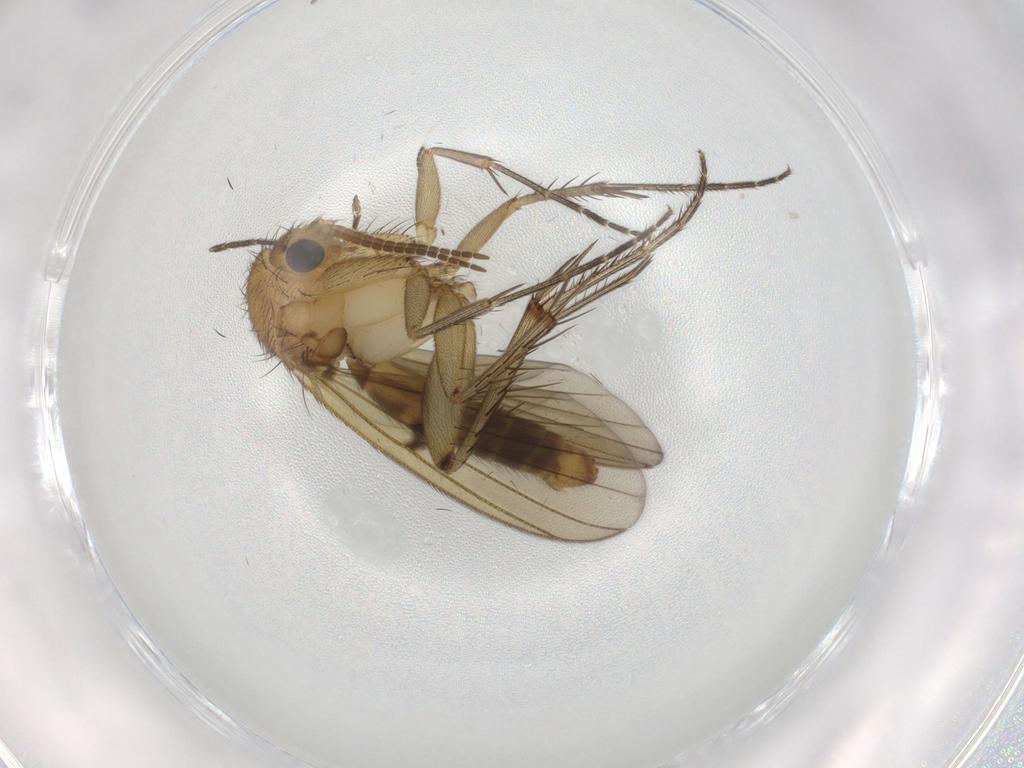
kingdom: Animalia
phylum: Arthropoda
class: Insecta
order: Diptera
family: Mycetophilidae
